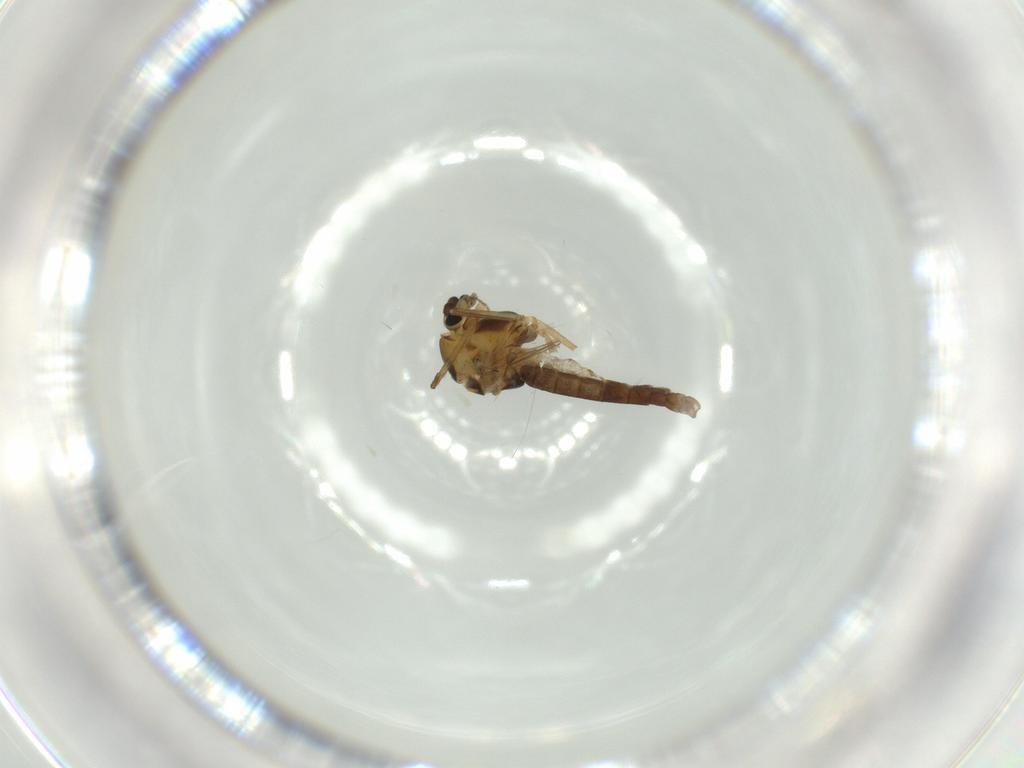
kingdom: Animalia
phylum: Arthropoda
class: Insecta
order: Diptera
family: Chironomidae
